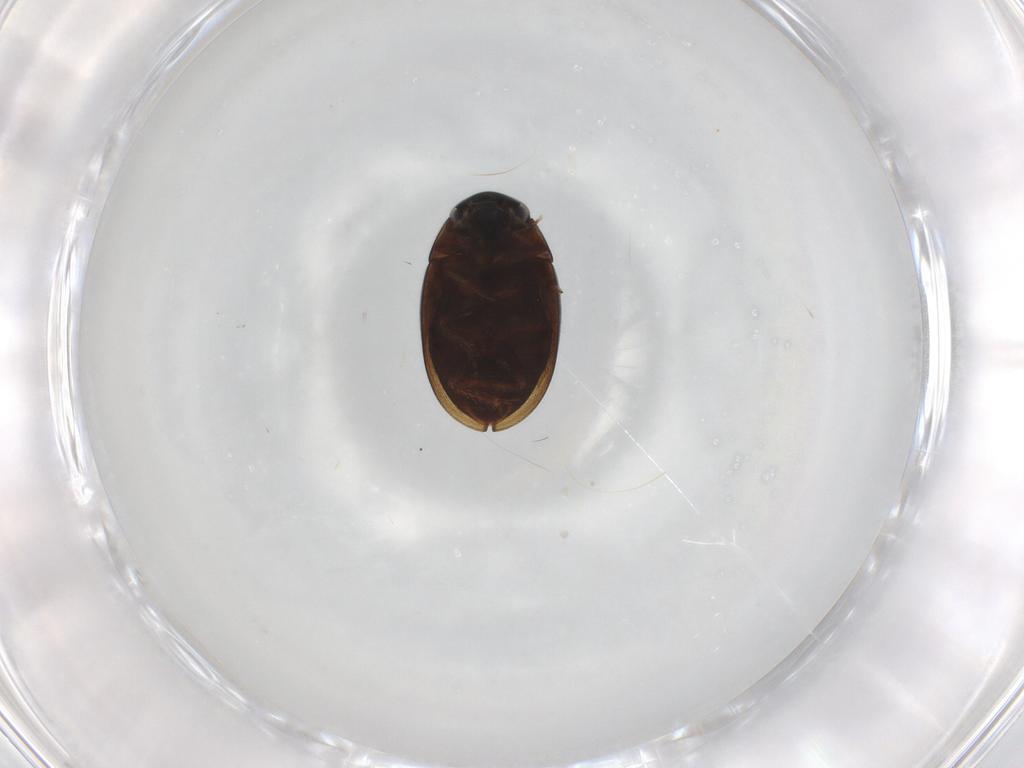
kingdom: Animalia
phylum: Arthropoda
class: Insecta
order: Coleoptera
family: Hydrophilidae
